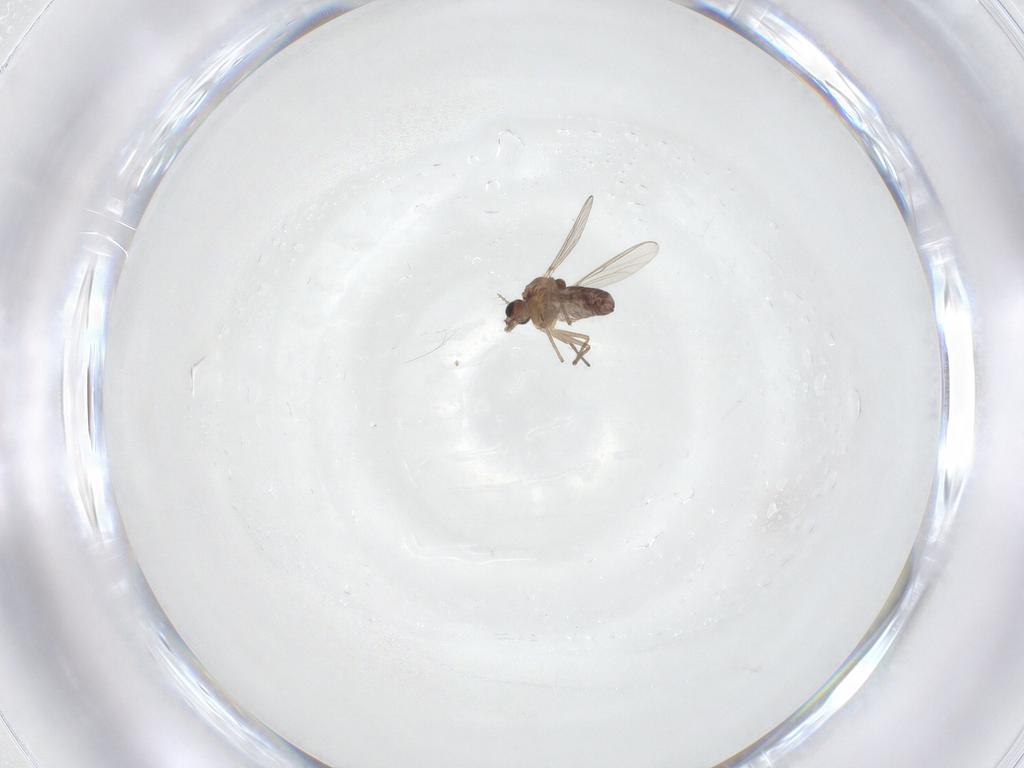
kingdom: Animalia
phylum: Arthropoda
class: Insecta
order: Diptera
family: Chironomidae
